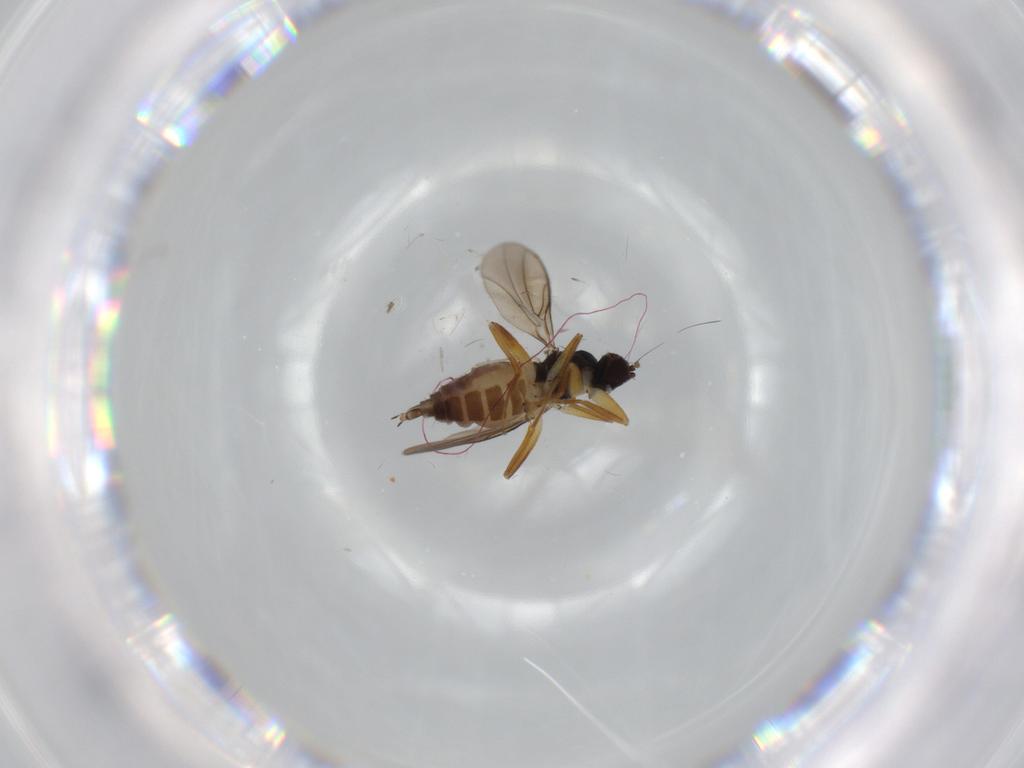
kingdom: Animalia
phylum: Arthropoda
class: Insecta
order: Diptera
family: Hybotidae
